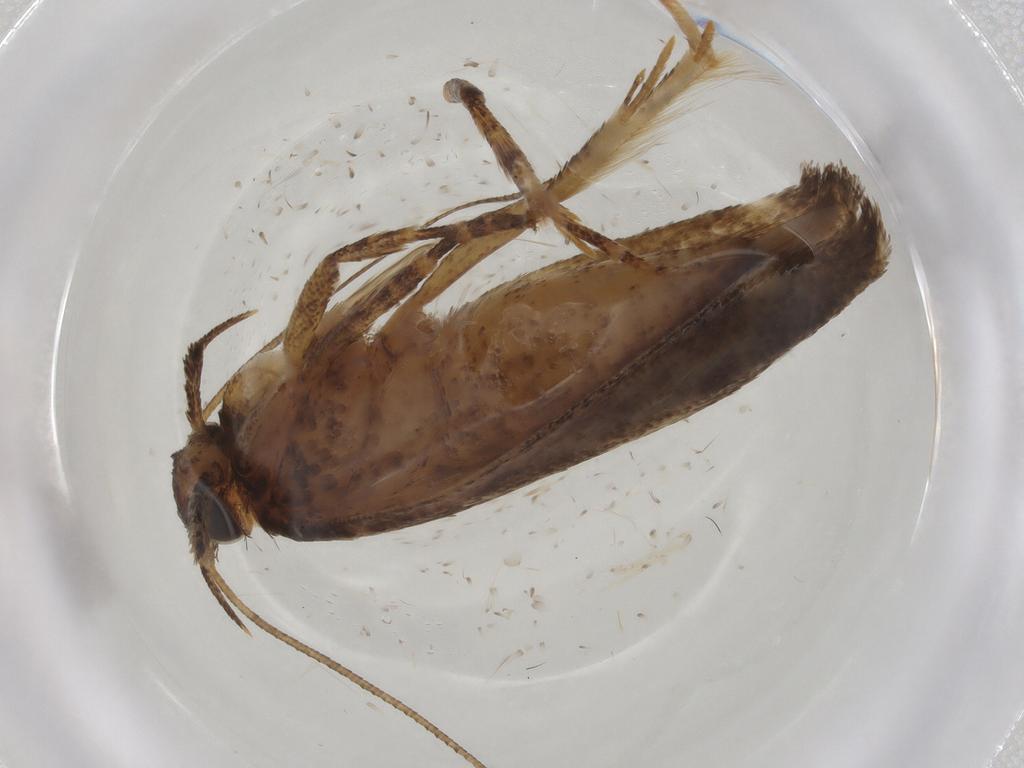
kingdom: Animalia
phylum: Arthropoda
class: Insecta
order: Lepidoptera
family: Gelechiidae
